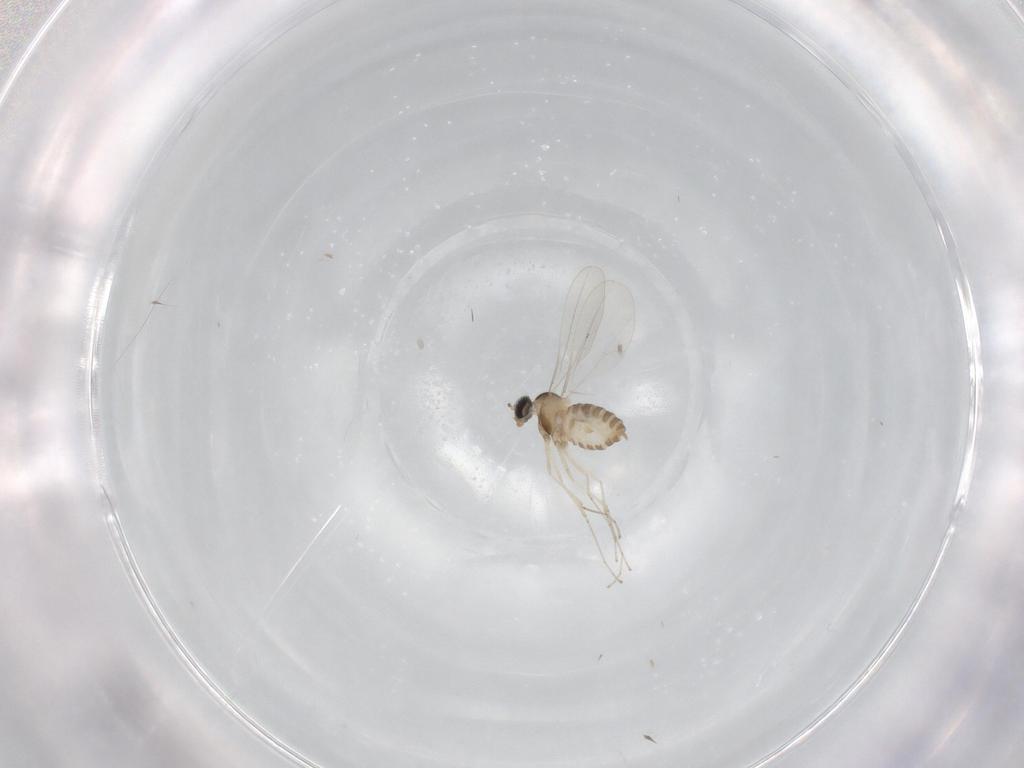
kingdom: Animalia
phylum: Arthropoda
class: Insecta
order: Diptera
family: Cecidomyiidae
